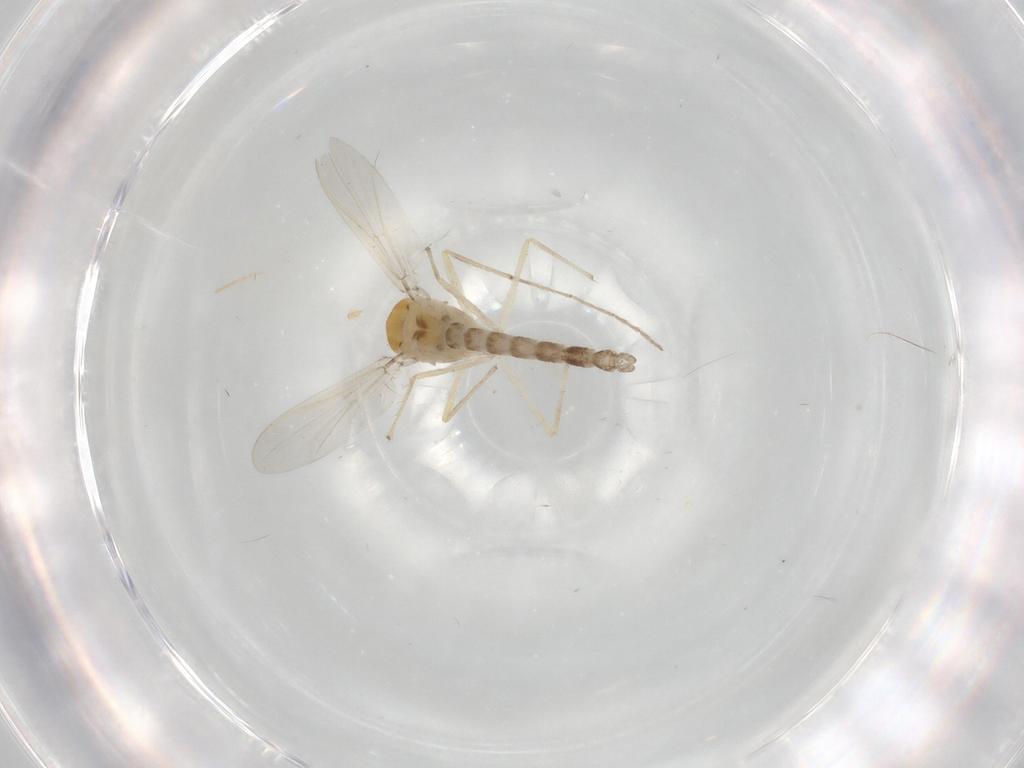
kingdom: Animalia
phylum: Arthropoda
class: Insecta
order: Diptera
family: Chironomidae
